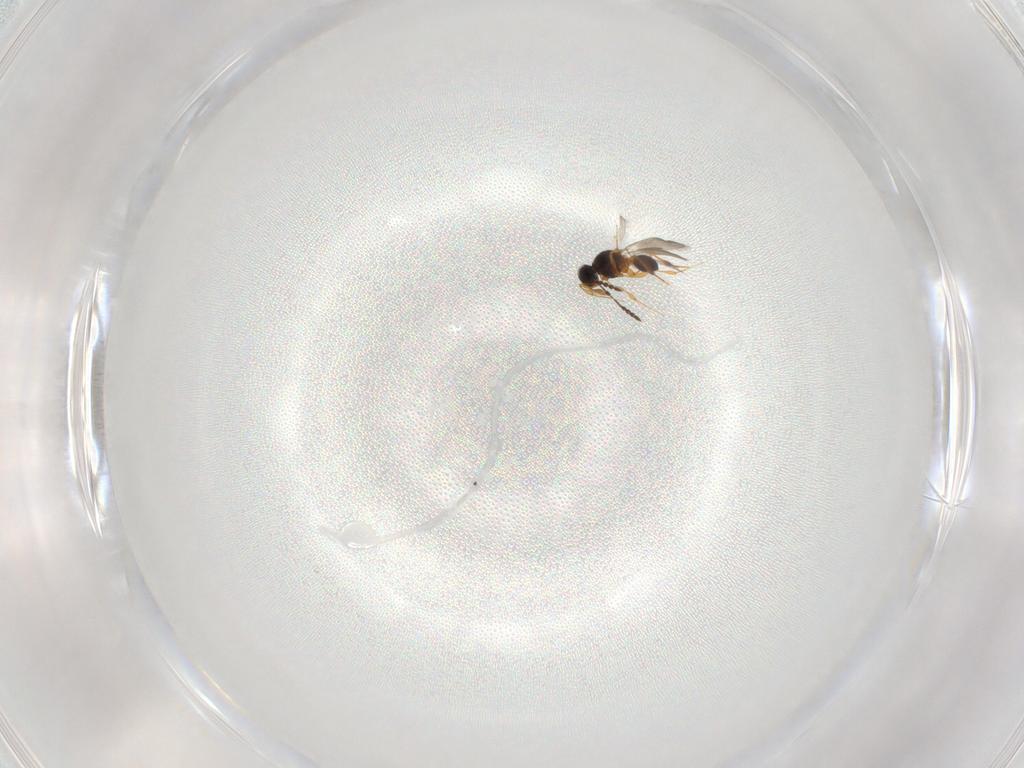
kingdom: Animalia
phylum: Arthropoda
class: Insecta
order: Hymenoptera
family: Platygastridae
